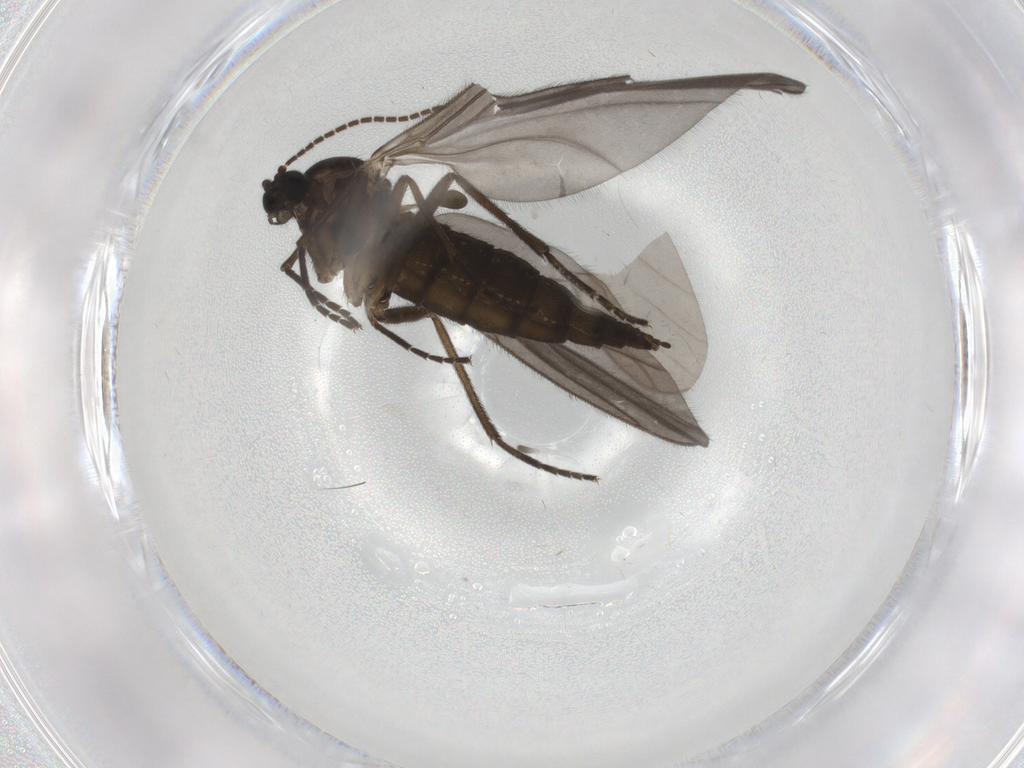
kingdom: Animalia
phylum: Arthropoda
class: Insecta
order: Diptera
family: Sciaridae
